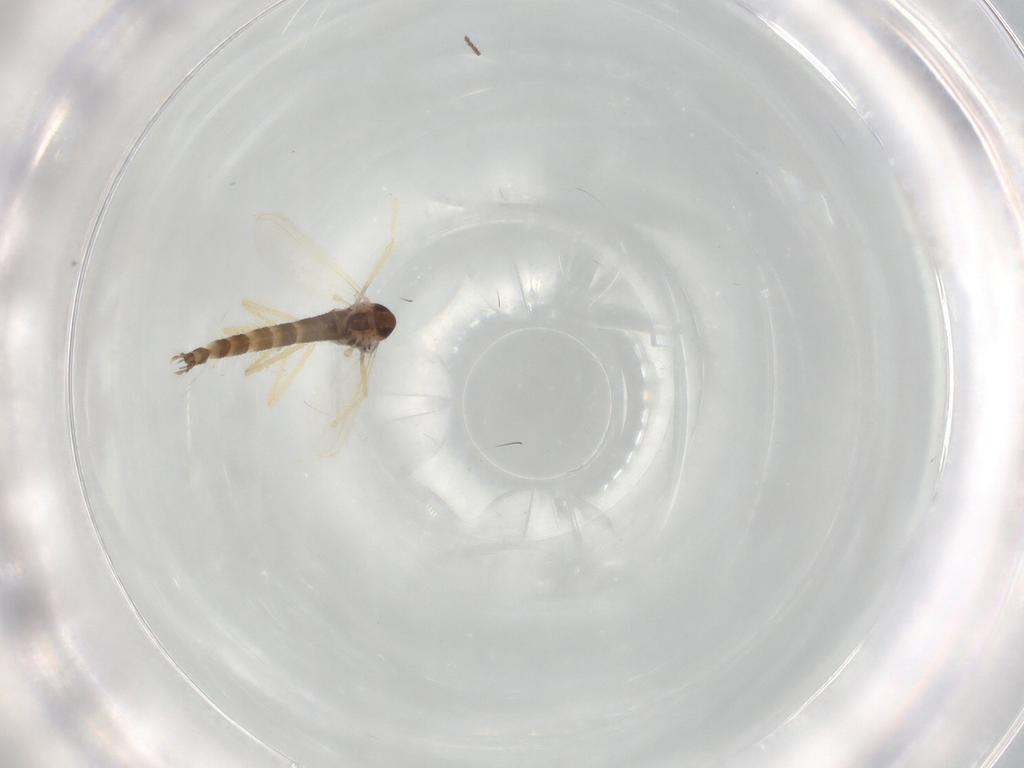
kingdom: Animalia
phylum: Arthropoda
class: Insecta
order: Diptera
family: Chironomidae
